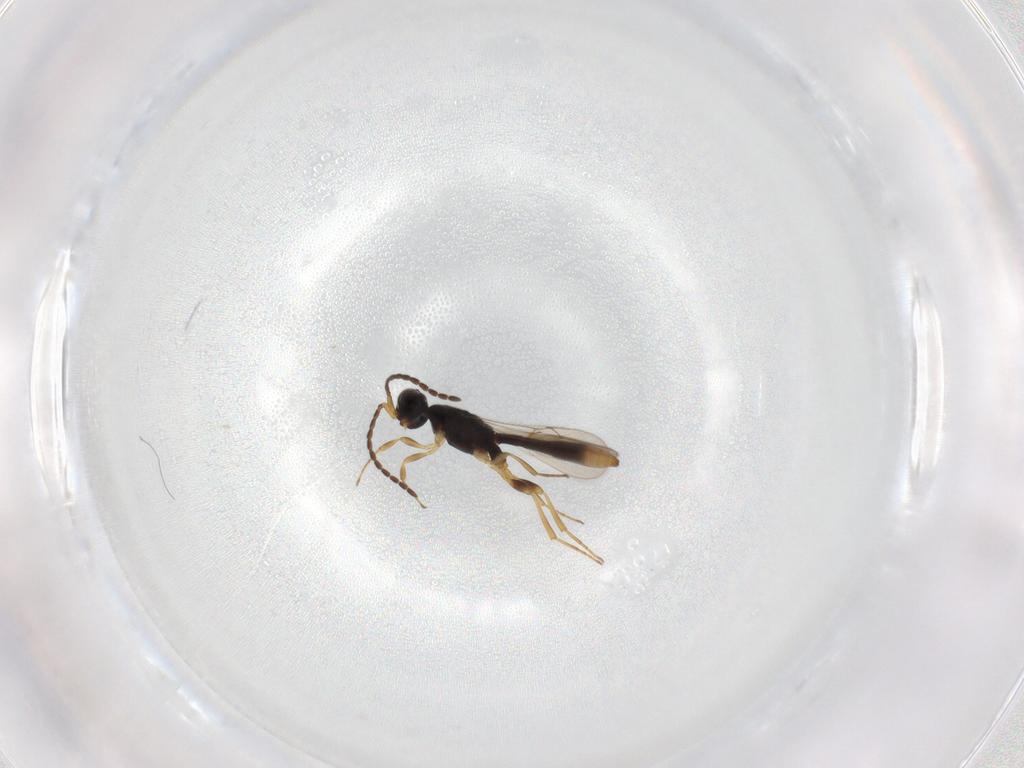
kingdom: Animalia
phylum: Arthropoda
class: Insecta
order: Hymenoptera
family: Scelionidae
